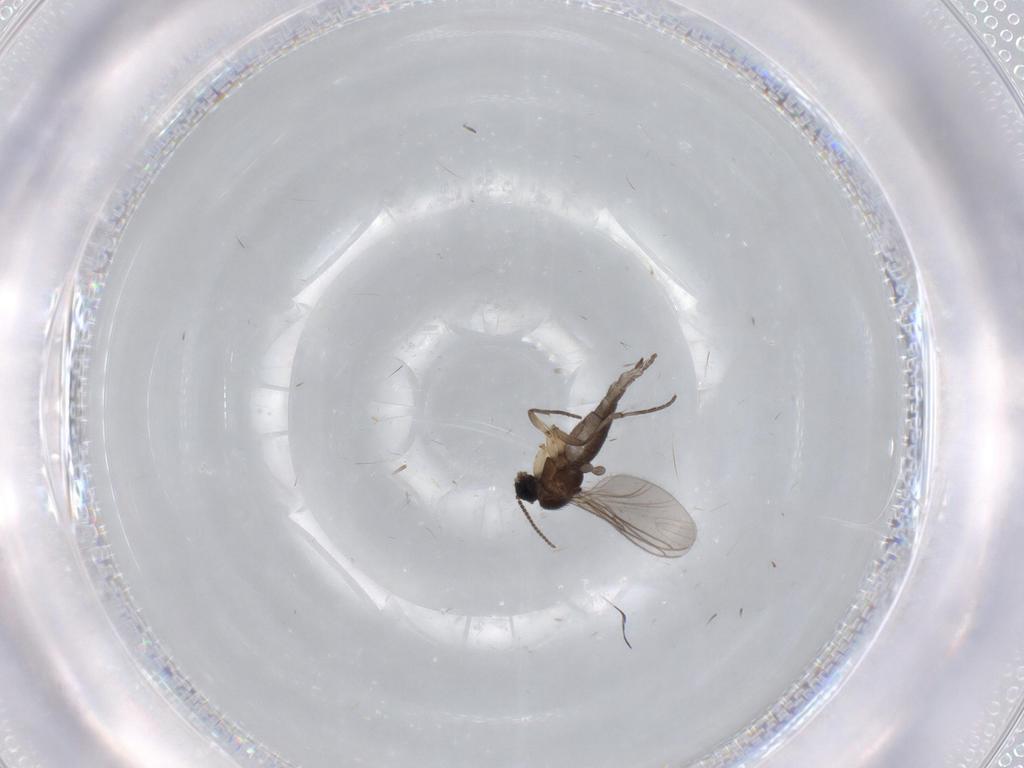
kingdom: Animalia
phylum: Arthropoda
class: Insecta
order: Diptera
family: Sciaridae
